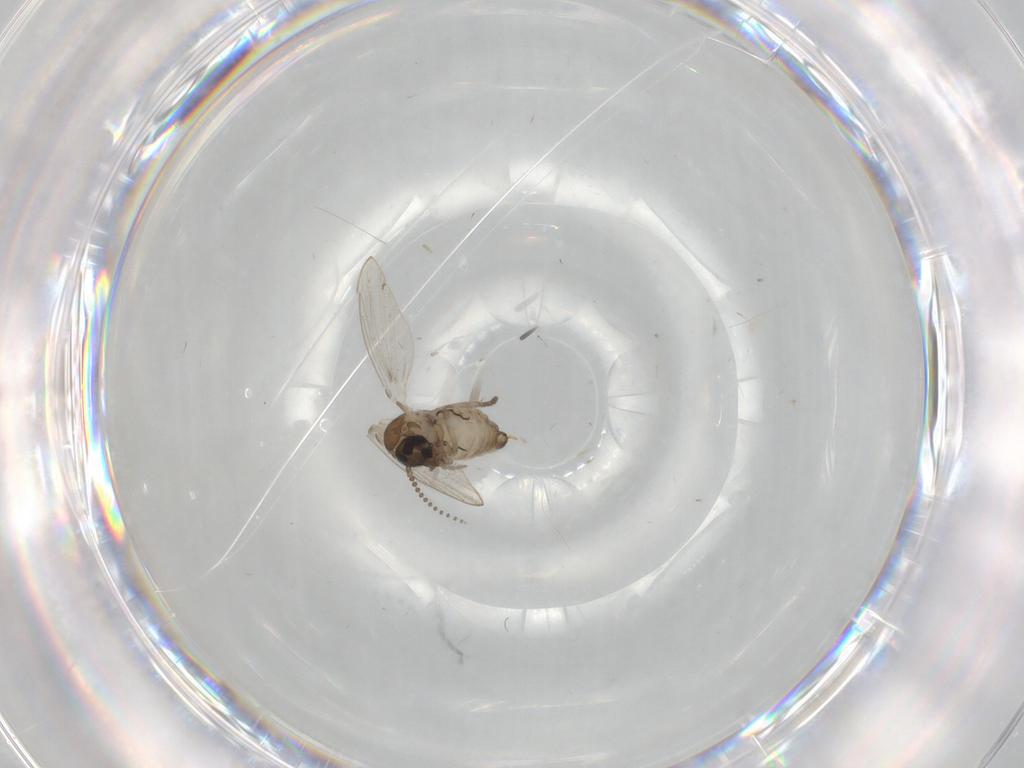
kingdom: Animalia
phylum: Arthropoda
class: Insecta
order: Diptera
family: Psychodidae
